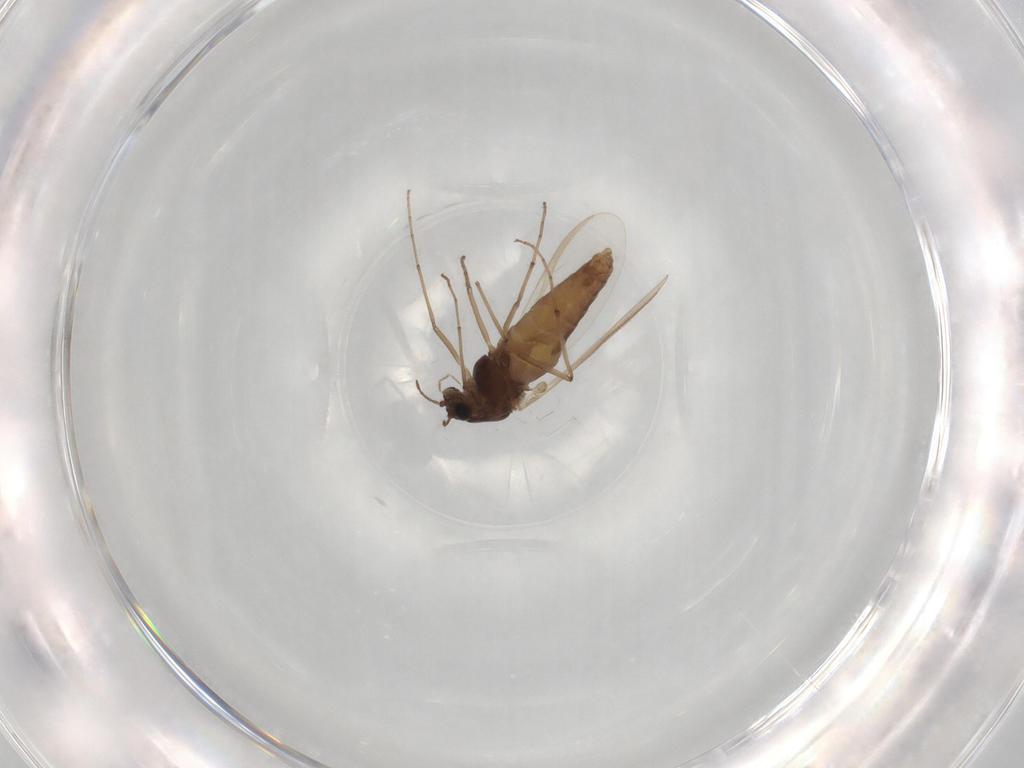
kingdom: Animalia
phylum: Arthropoda
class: Insecta
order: Diptera
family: Chironomidae
